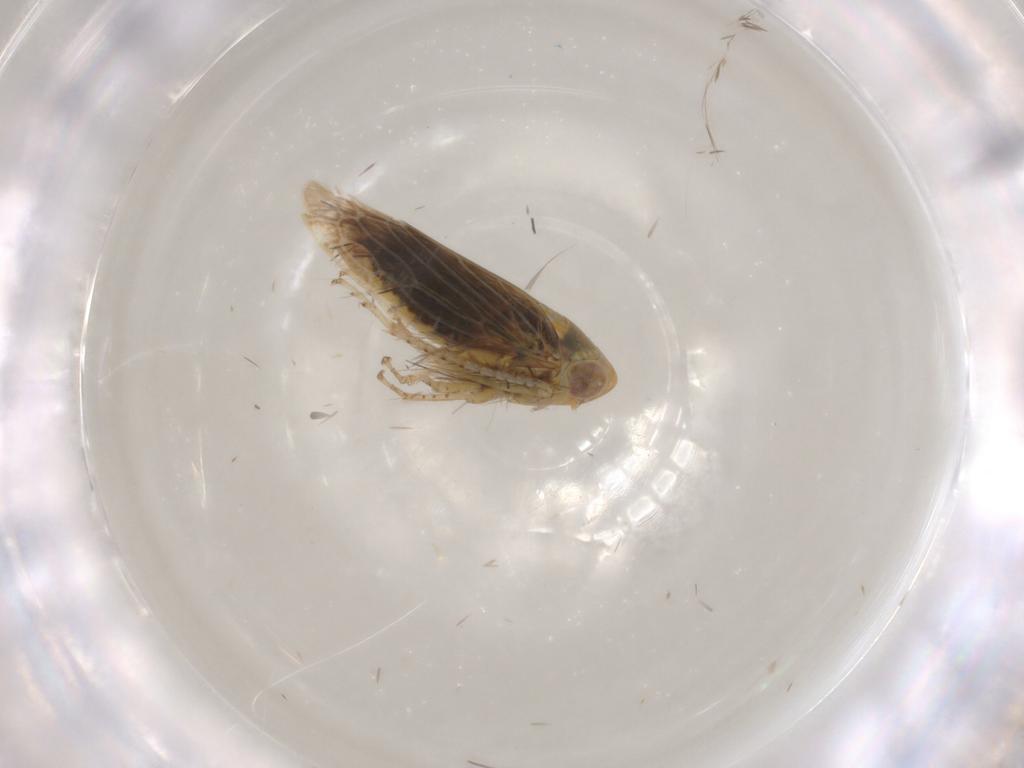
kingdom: Animalia
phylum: Arthropoda
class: Insecta
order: Hemiptera
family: Cicadellidae
